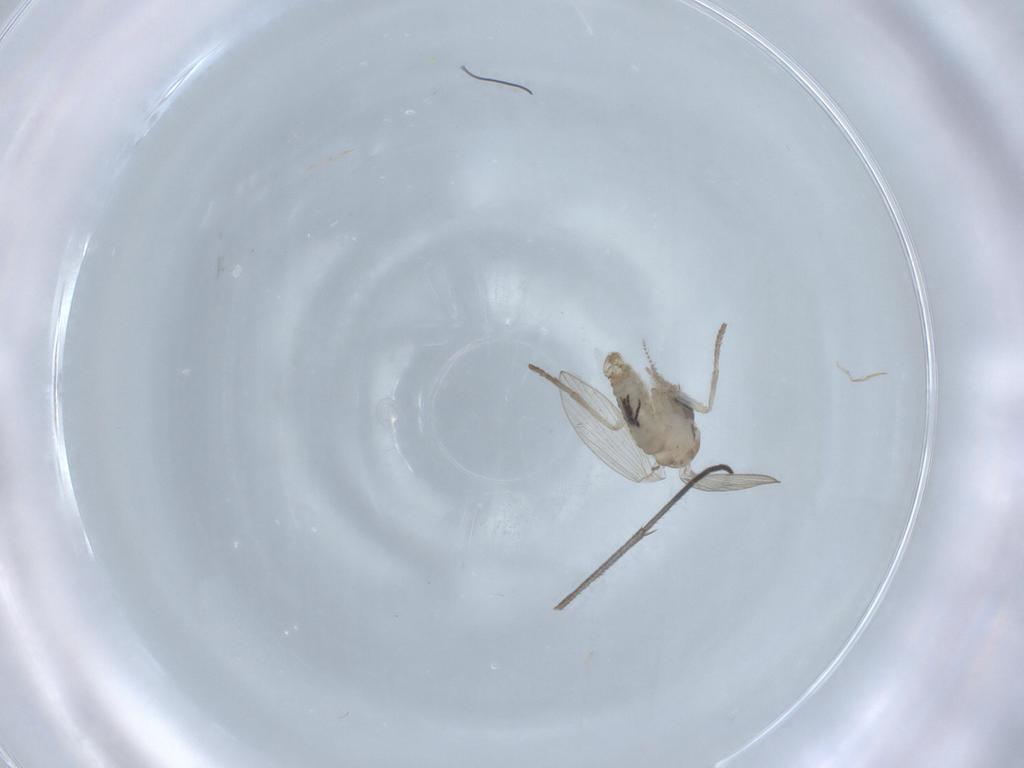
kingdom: Animalia
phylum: Arthropoda
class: Insecta
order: Diptera
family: Psychodidae
